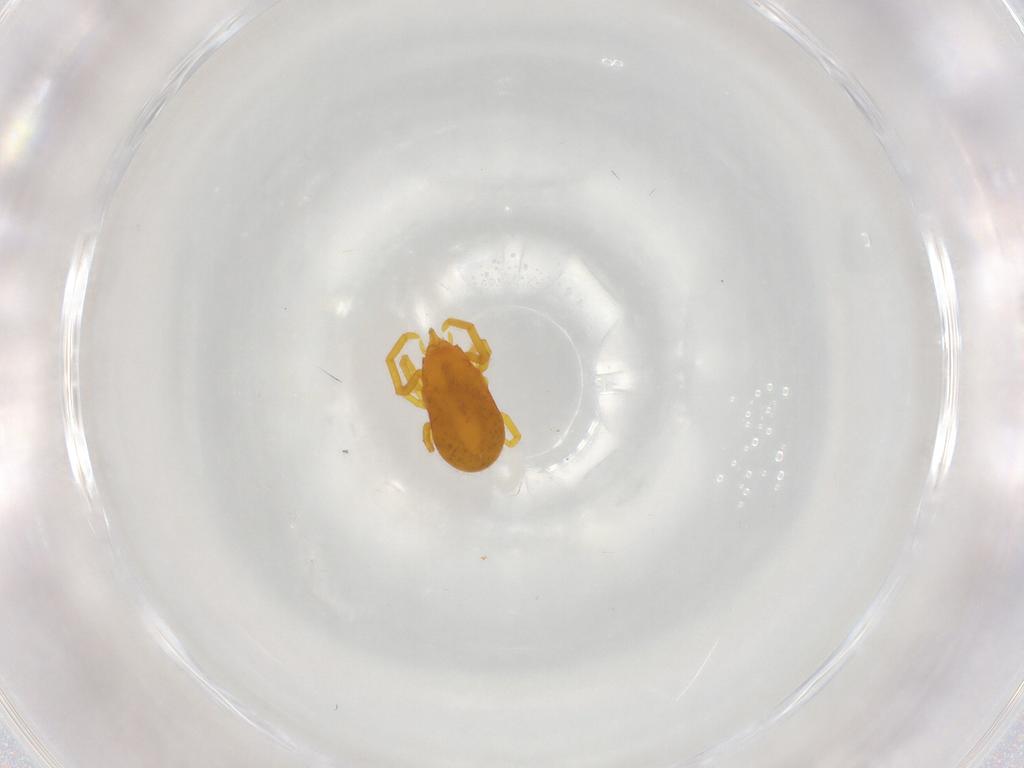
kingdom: Animalia
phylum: Arthropoda
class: Arachnida
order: Trombidiformes
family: Labidostommidae
